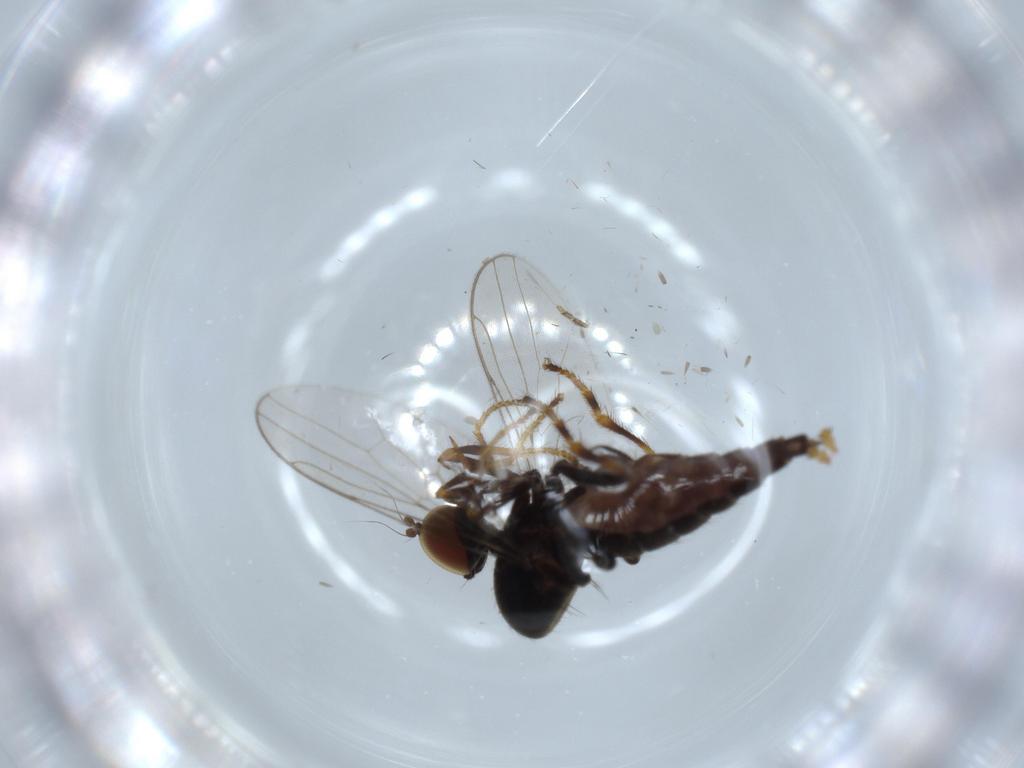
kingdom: Animalia
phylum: Arthropoda
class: Insecta
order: Diptera
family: Hybotidae
